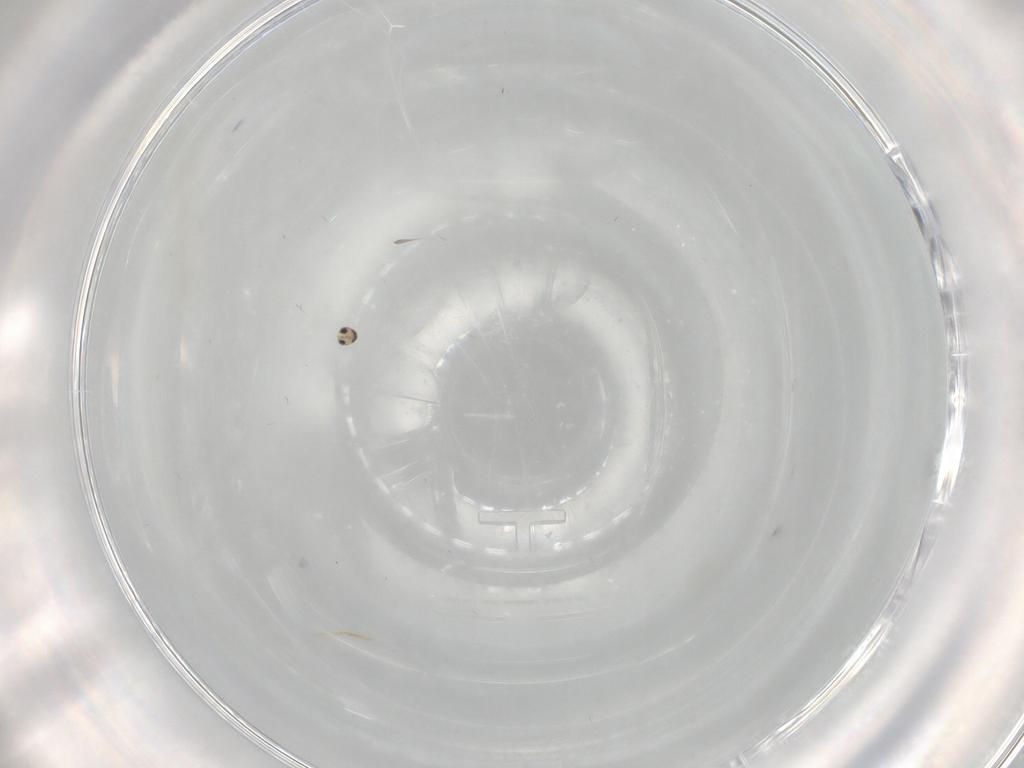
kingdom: Animalia
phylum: Arthropoda
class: Insecta
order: Diptera
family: Cecidomyiidae
